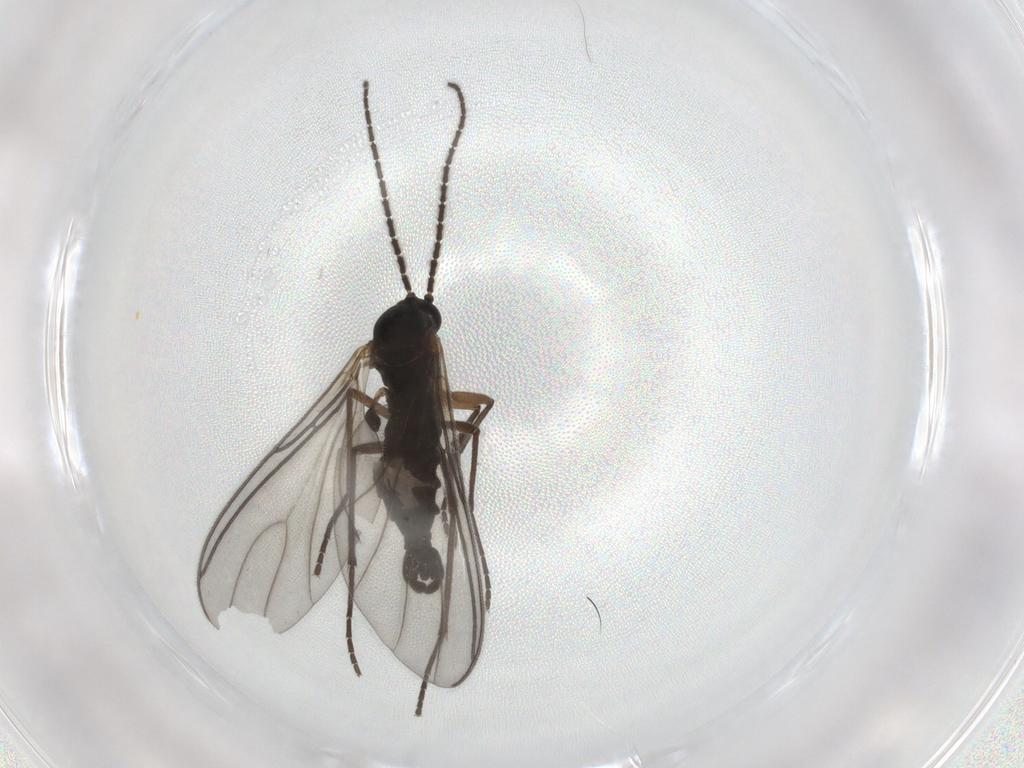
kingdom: Animalia
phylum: Arthropoda
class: Insecta
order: Diptera
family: Sciaridae
